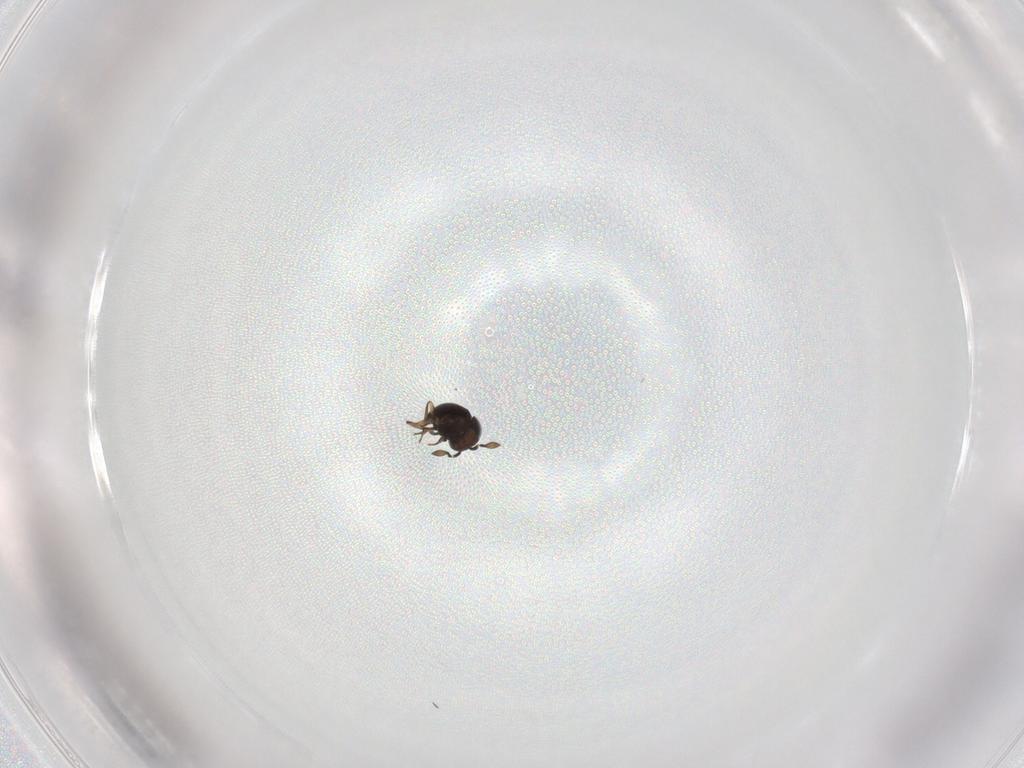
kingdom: Animalia
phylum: Arthropoda
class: Insecta
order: Hymenoptera
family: Scelionidae
